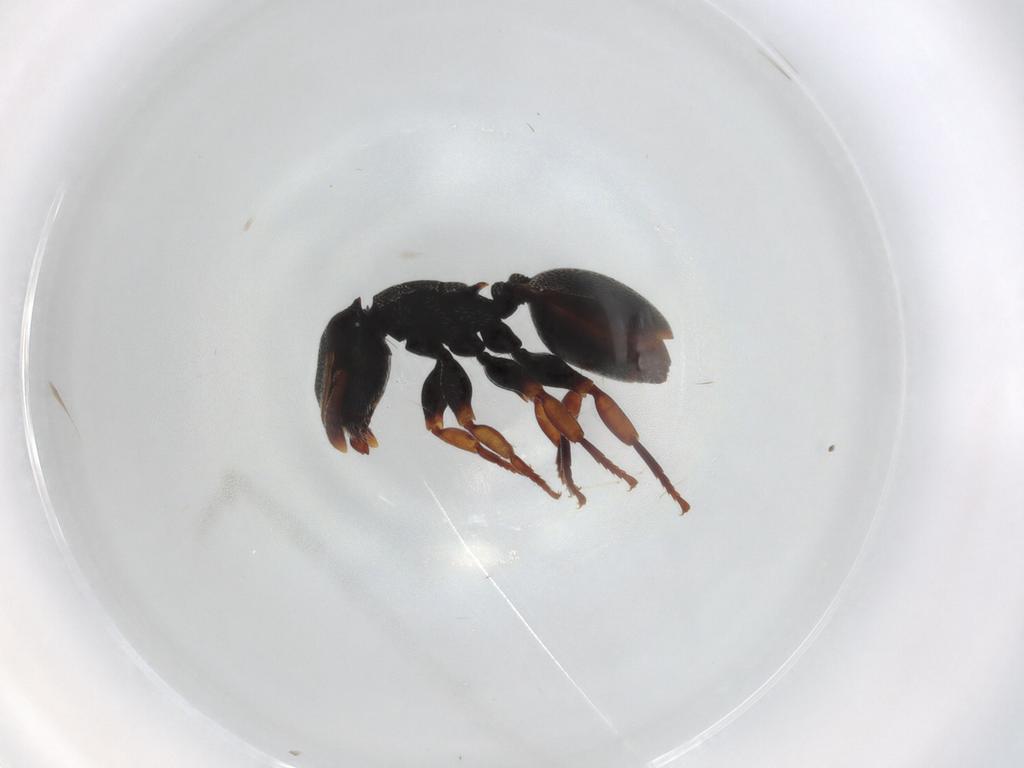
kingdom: Animalia
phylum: Arthropoda
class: Insecta
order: Hymenoptera
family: Formicidae
